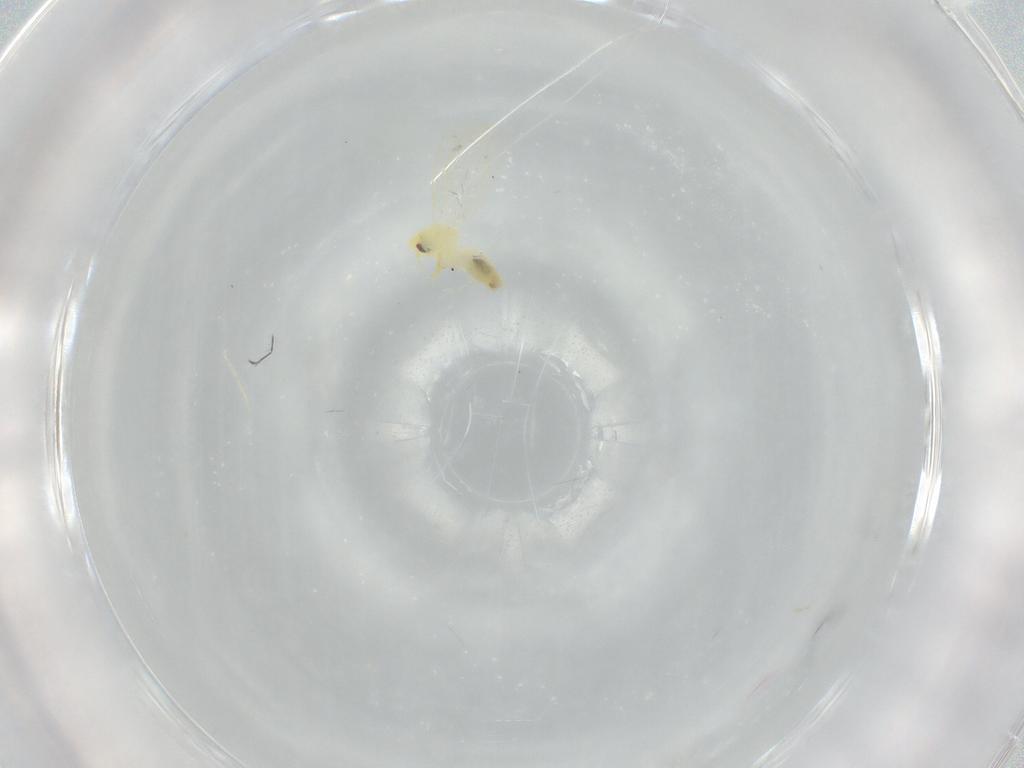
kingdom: Animalia
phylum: Arthropoda
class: Insecta
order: Hemiptera
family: Aleyrodidae
